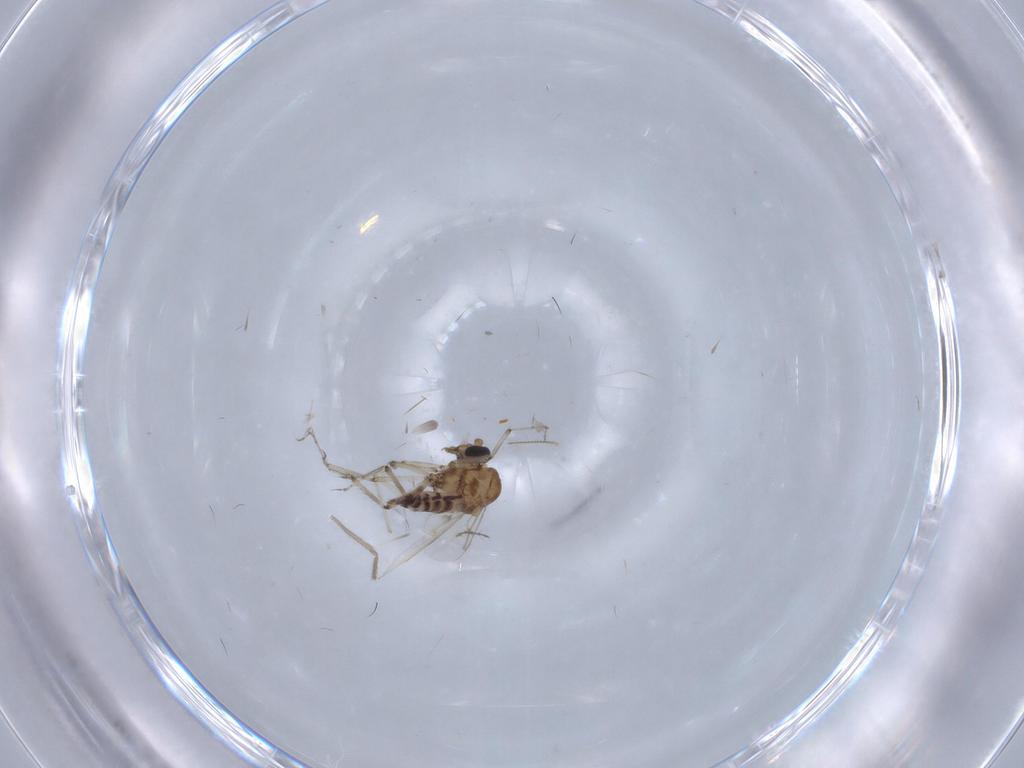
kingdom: Animalia
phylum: Arthropoda
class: Insecta
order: Diptera
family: Ceratopogonidae
